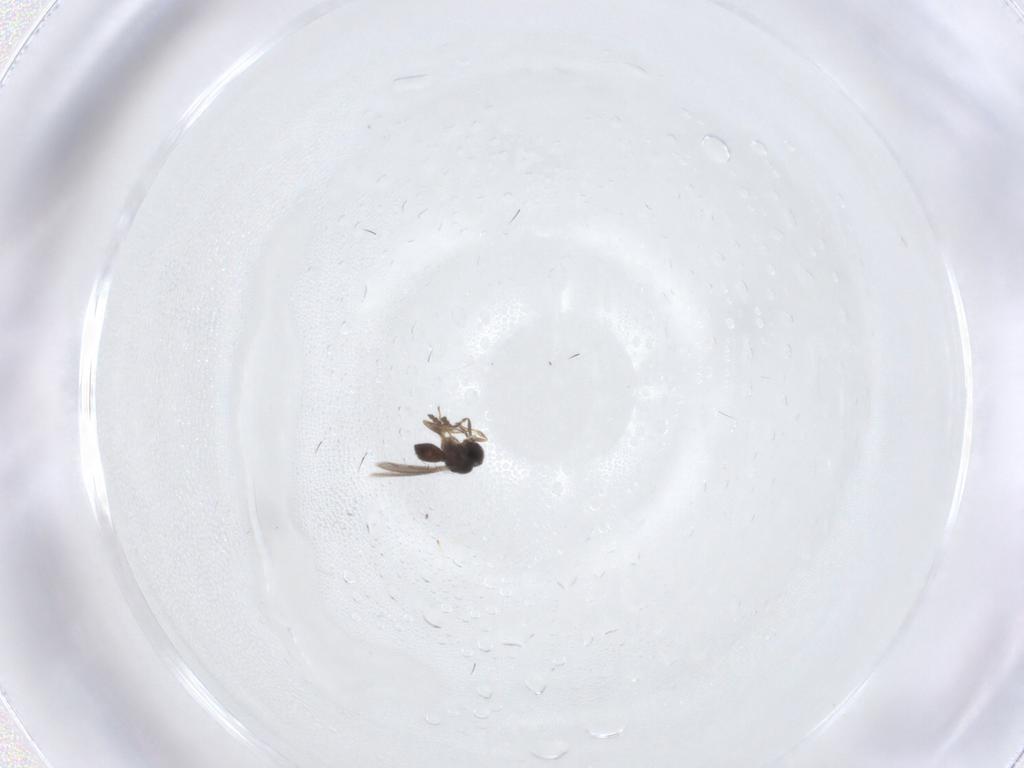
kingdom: Animalia
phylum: Arthropoda
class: Insecta
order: Hymenoptera
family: Scelionidae
